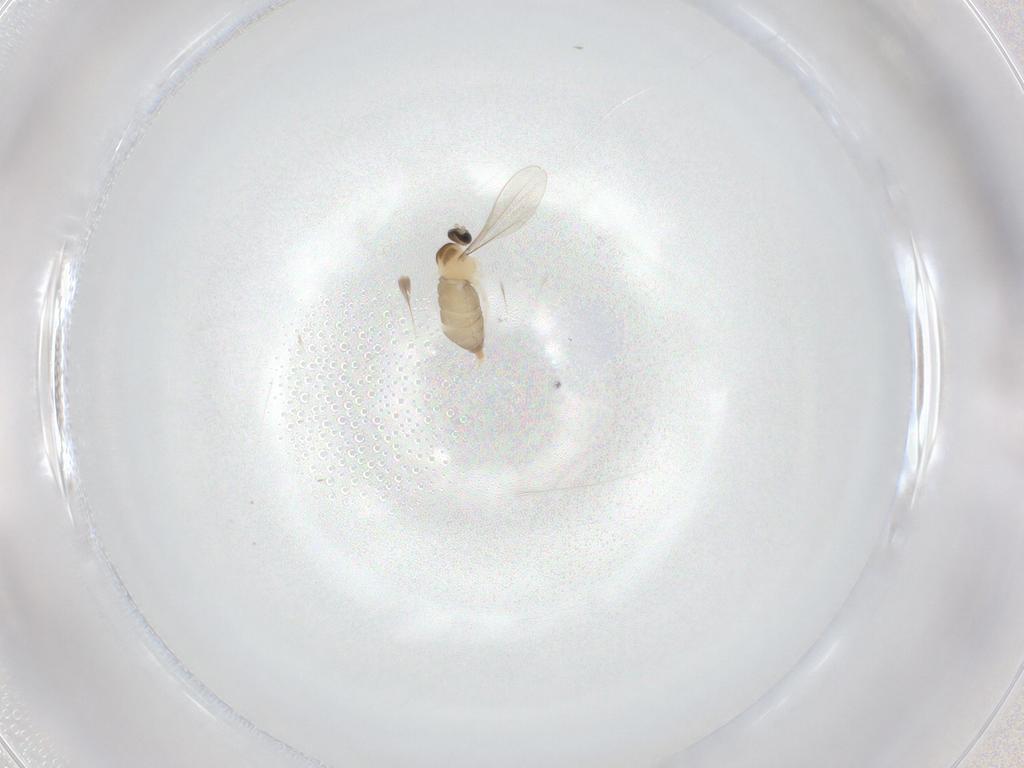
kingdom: Animalia
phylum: Arthropoda
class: Insecta
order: Diptera
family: Cecidomyiidae
